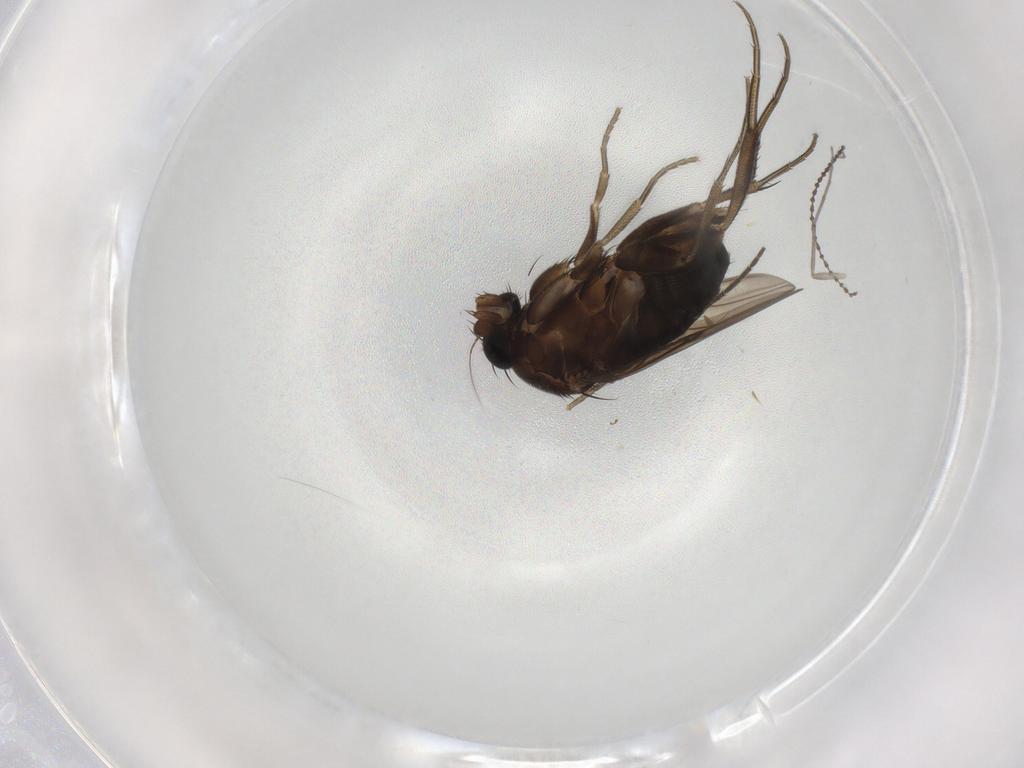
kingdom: Animalia
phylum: Arthropoda
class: Insecta
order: Diptera
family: Phoridae
